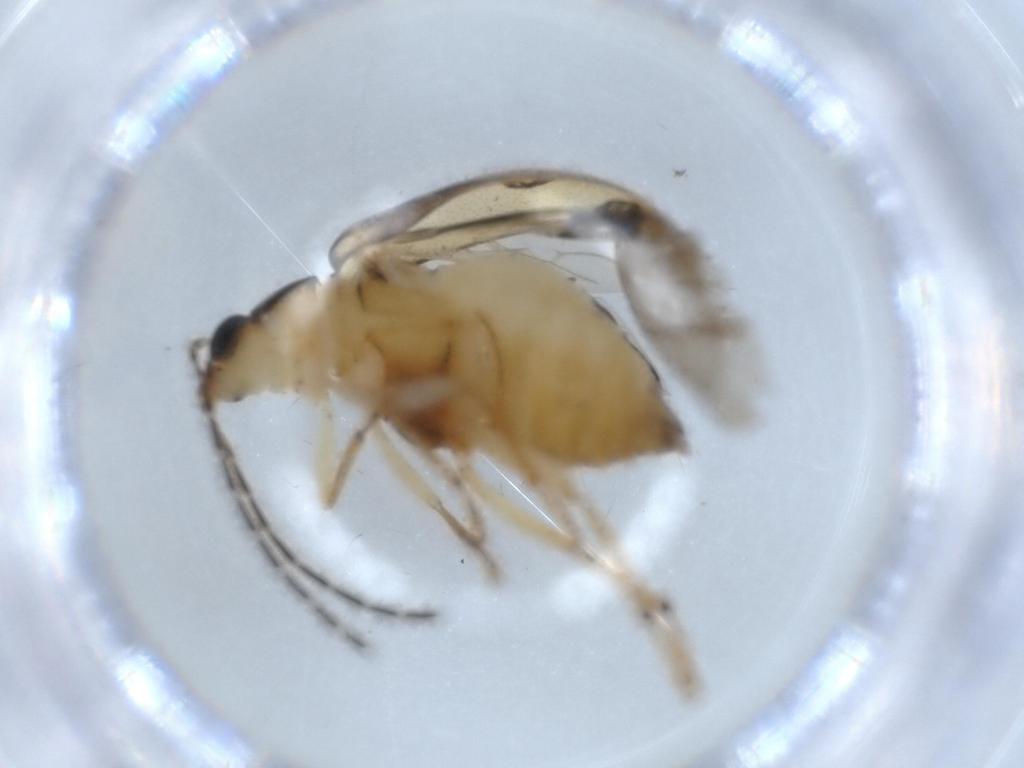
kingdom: Animalia
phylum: Arthropoda
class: Insecta
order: Coleoptera
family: Chrysomelidae
